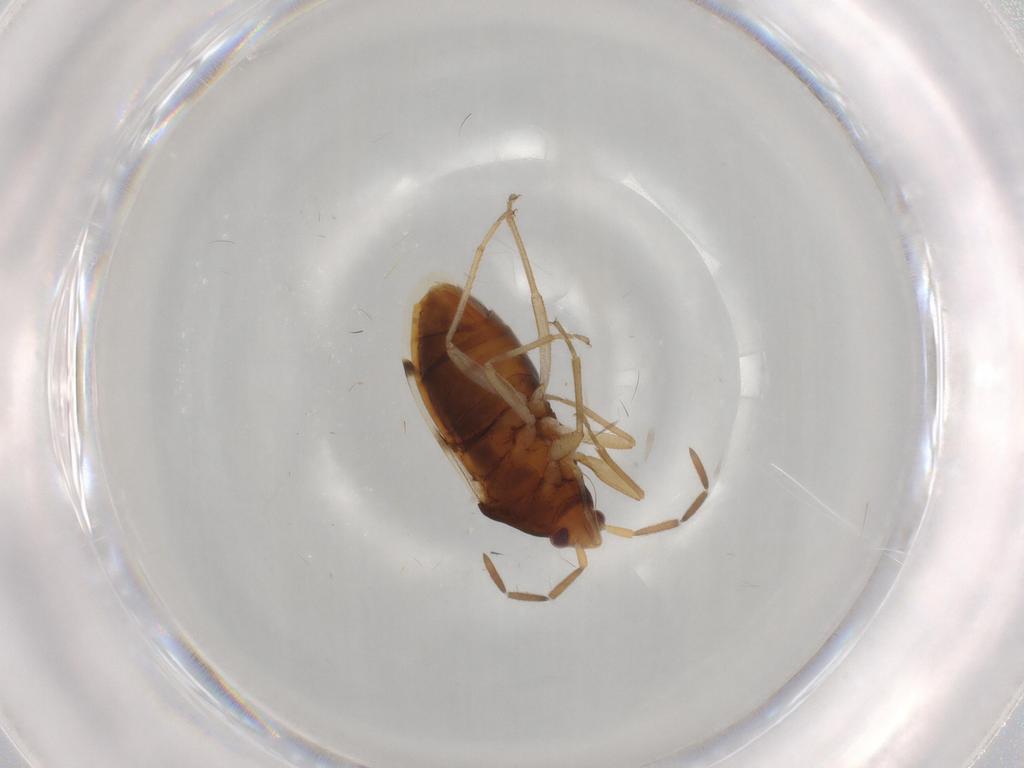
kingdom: Animalia
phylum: Arthropoda
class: Insecta
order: Hemiptera
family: Rhyparochromidae
